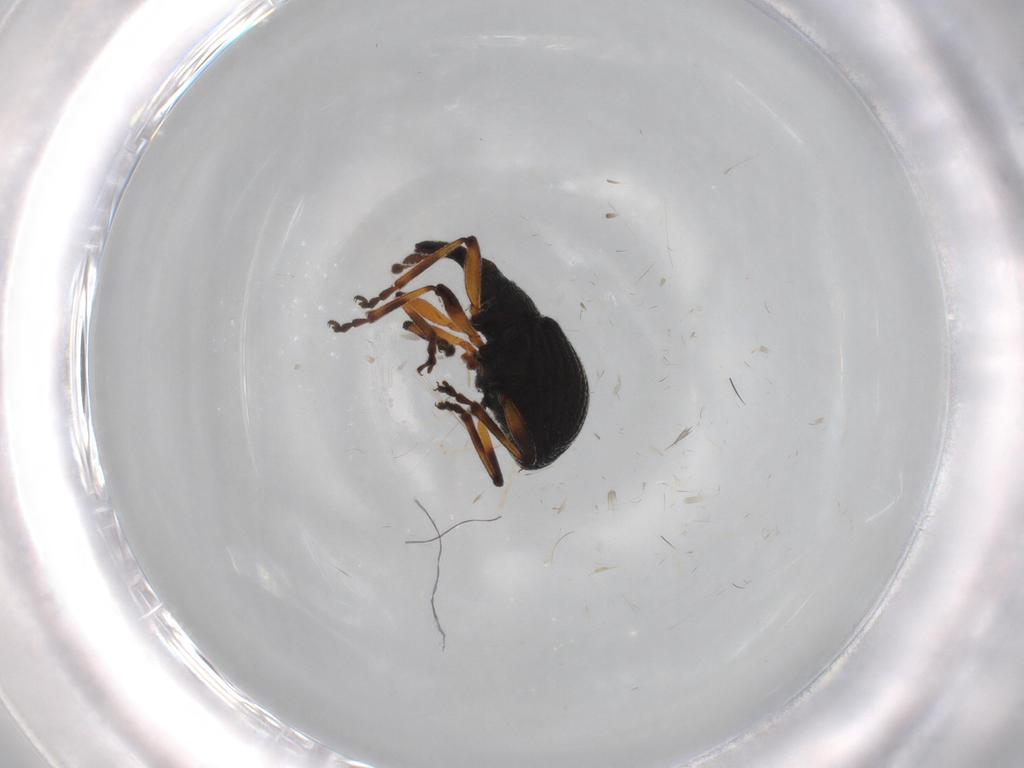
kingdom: Animalia
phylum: Arthropoda
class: Insecta
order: Coleoptera
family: Brentidae
